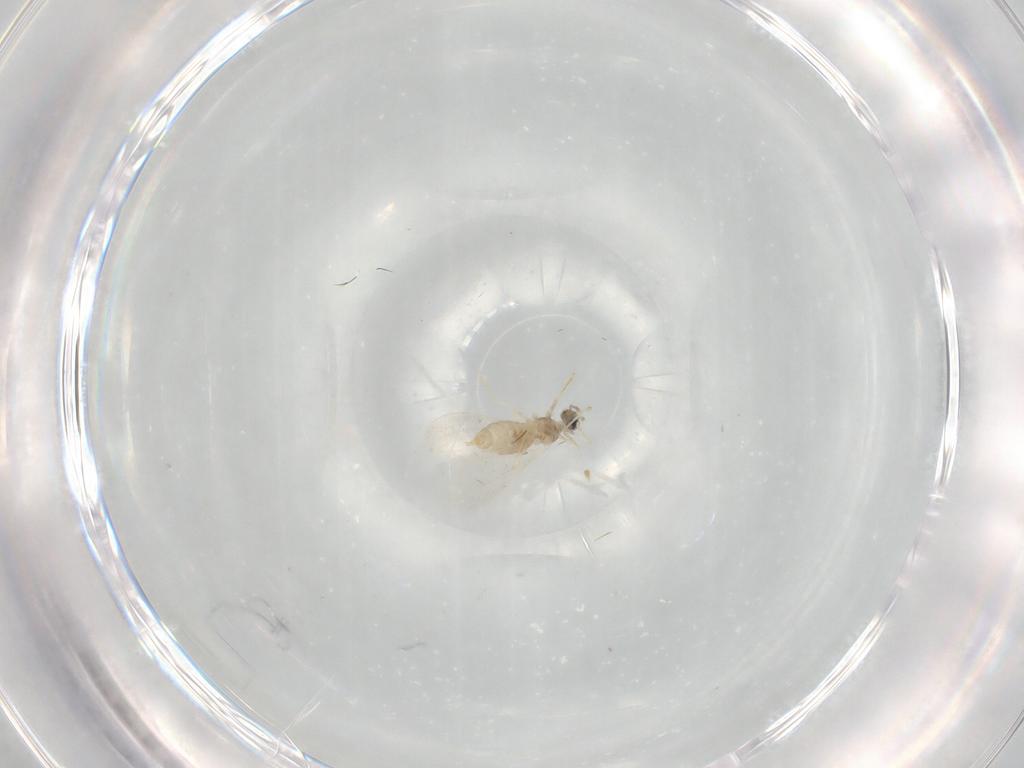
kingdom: Animalia
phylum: Arthropoda
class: Insecta
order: Diptera
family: Cecidomyiidae
